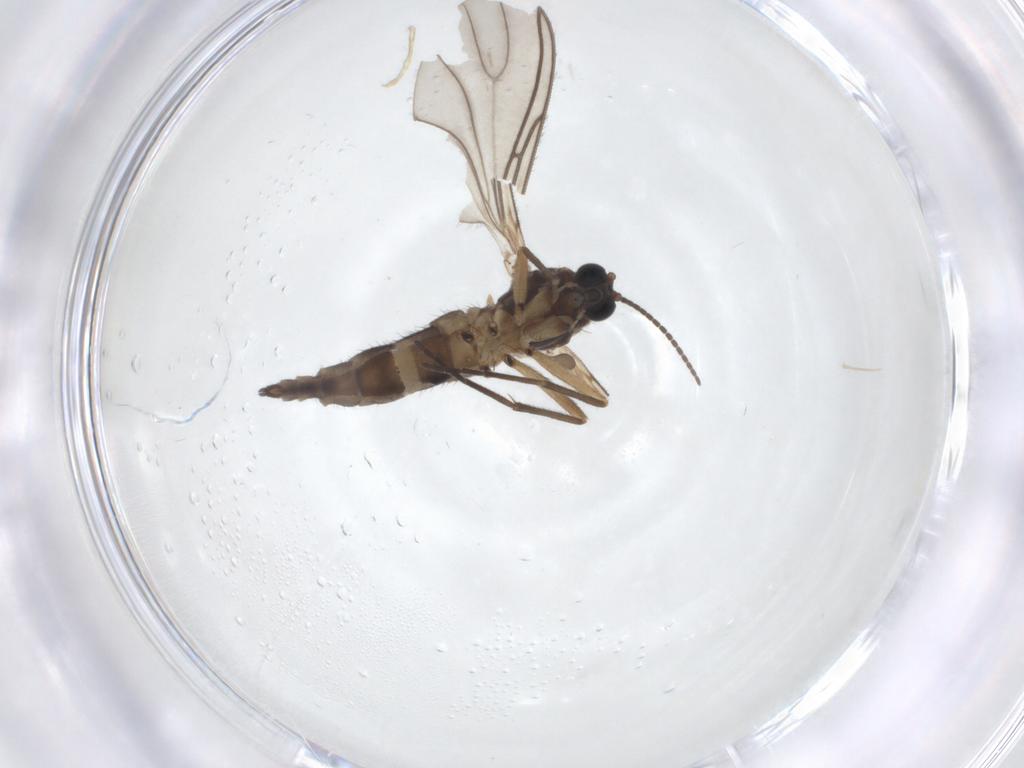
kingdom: Animalia
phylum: Arthropoda
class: Insecta
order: Diptera
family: Sciaridae
